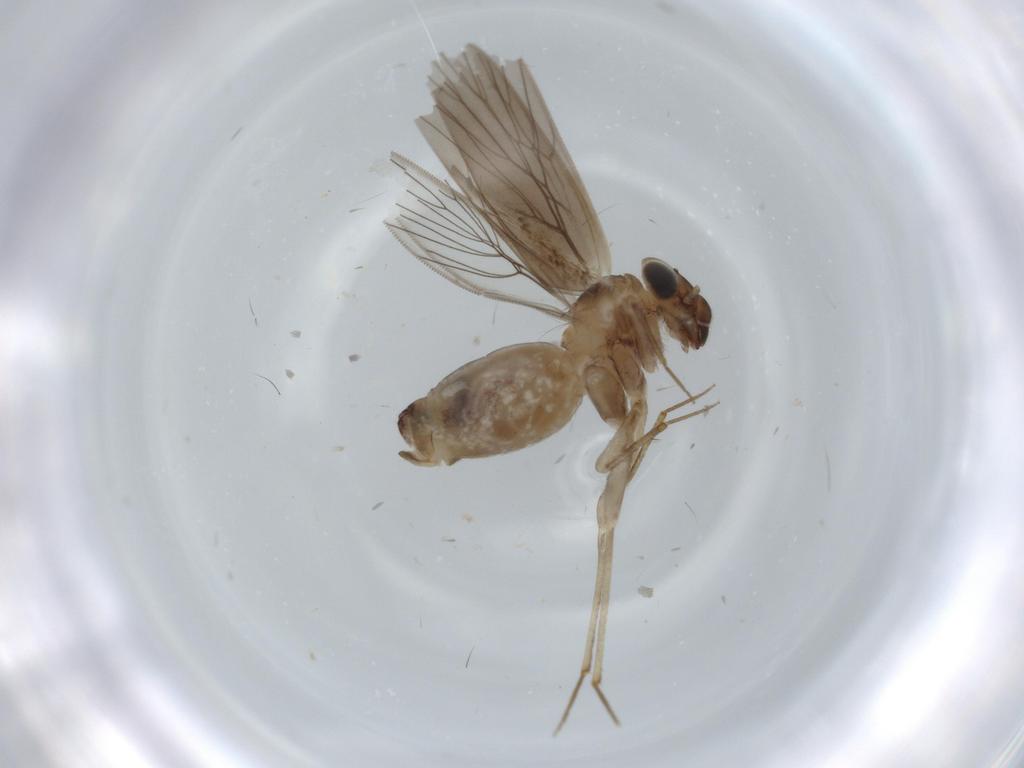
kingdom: Animalia
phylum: Arthropoda
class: Insecta
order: Psocodea
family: Lepidopsocidae
